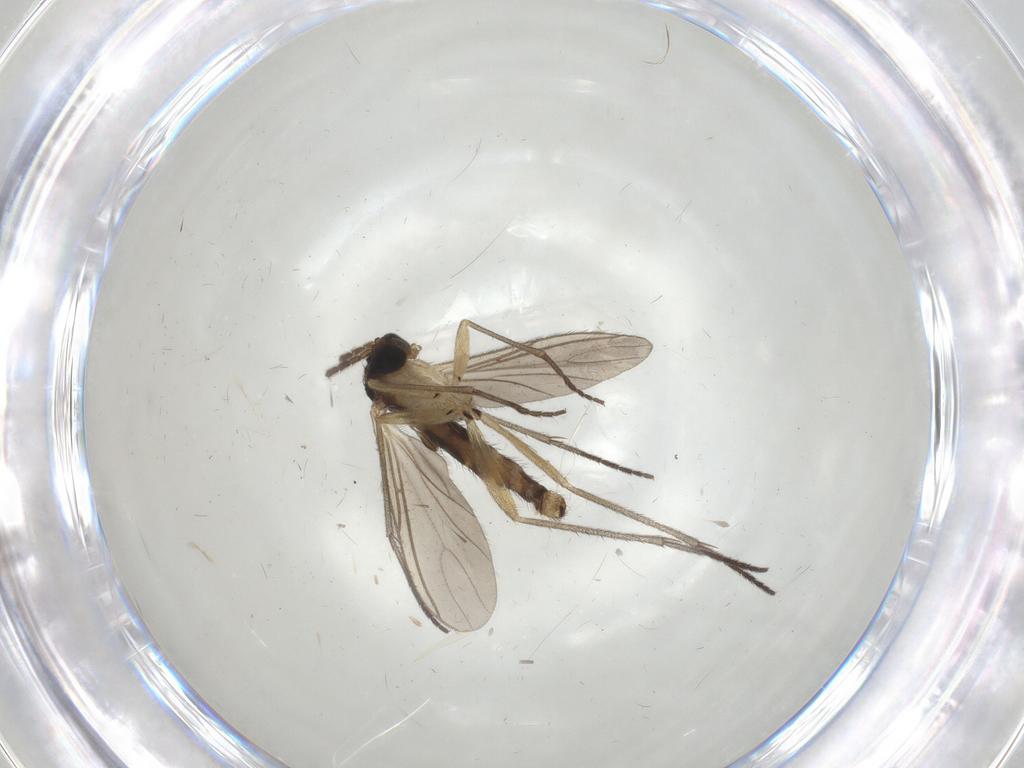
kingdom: Animalia
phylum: Arthropoda
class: Insecta
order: Diptera
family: Sciaridae
